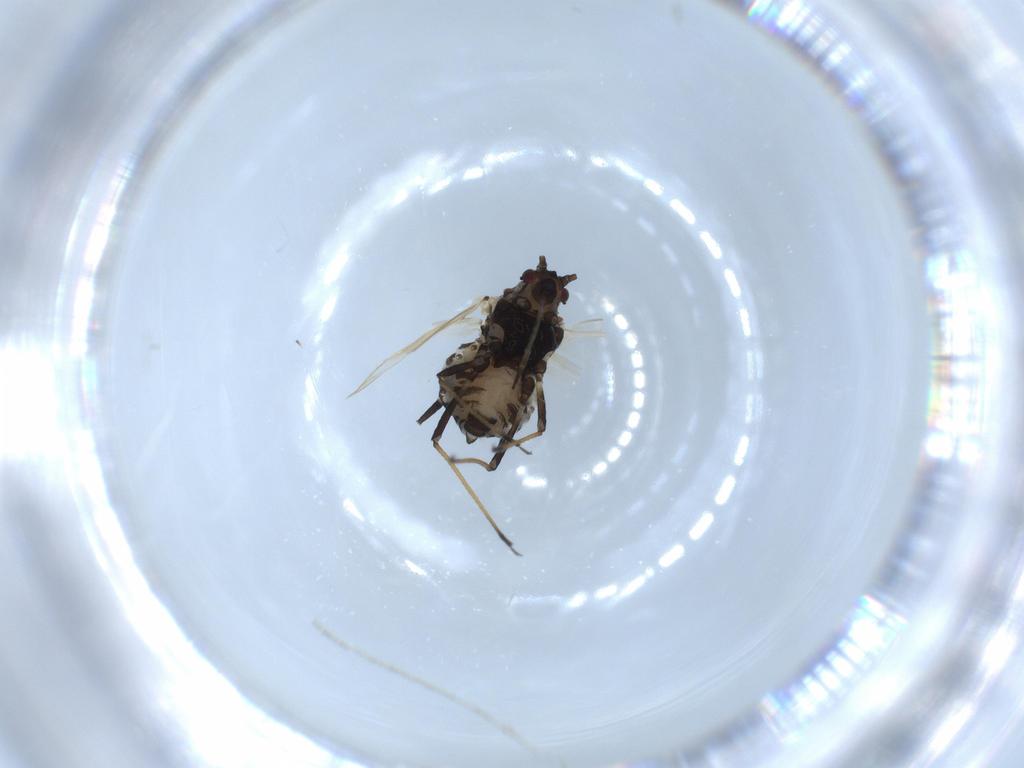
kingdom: Animalia
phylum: Arthropoda
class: Insecta
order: Hemiptera
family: Aphididae
